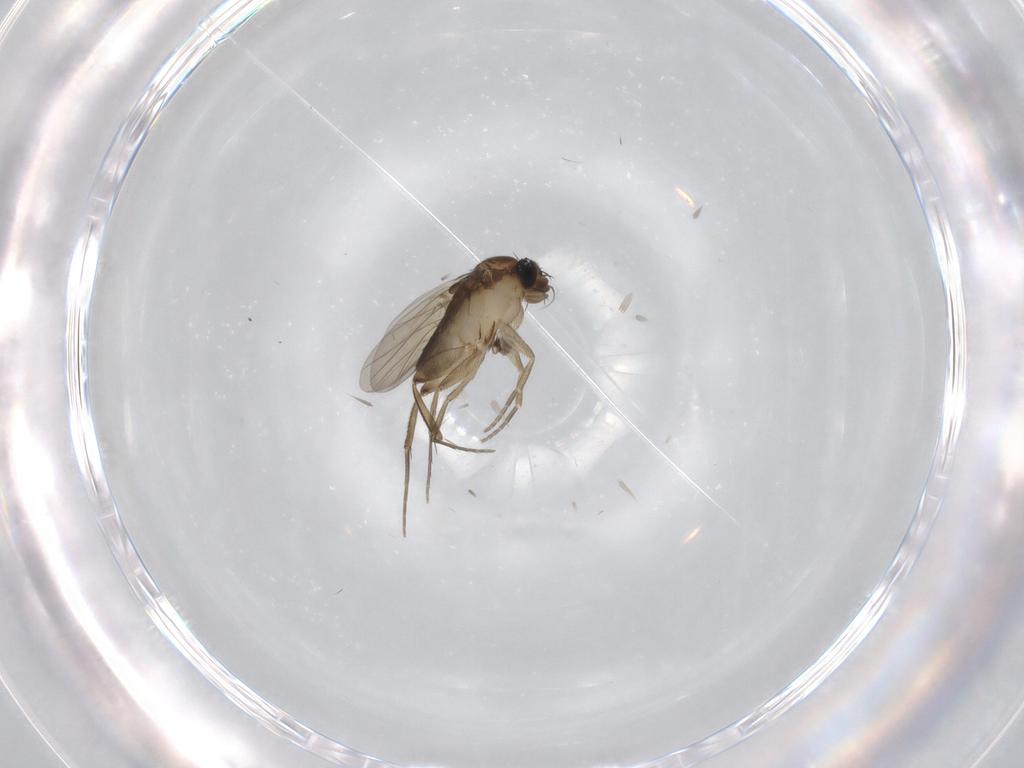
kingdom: Animalia
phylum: Arthropoda
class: Insecta
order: Diptera
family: Phoridae
